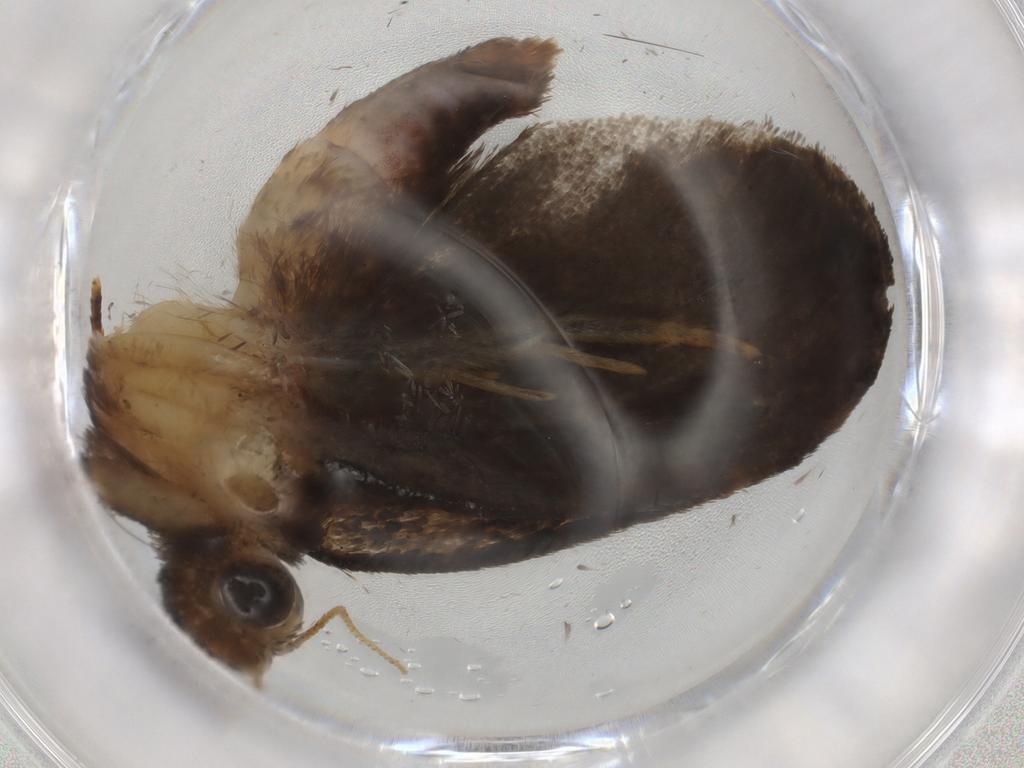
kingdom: Animalia
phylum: Arthropoda
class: Insecta
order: Lepidoptera
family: Tineidae
